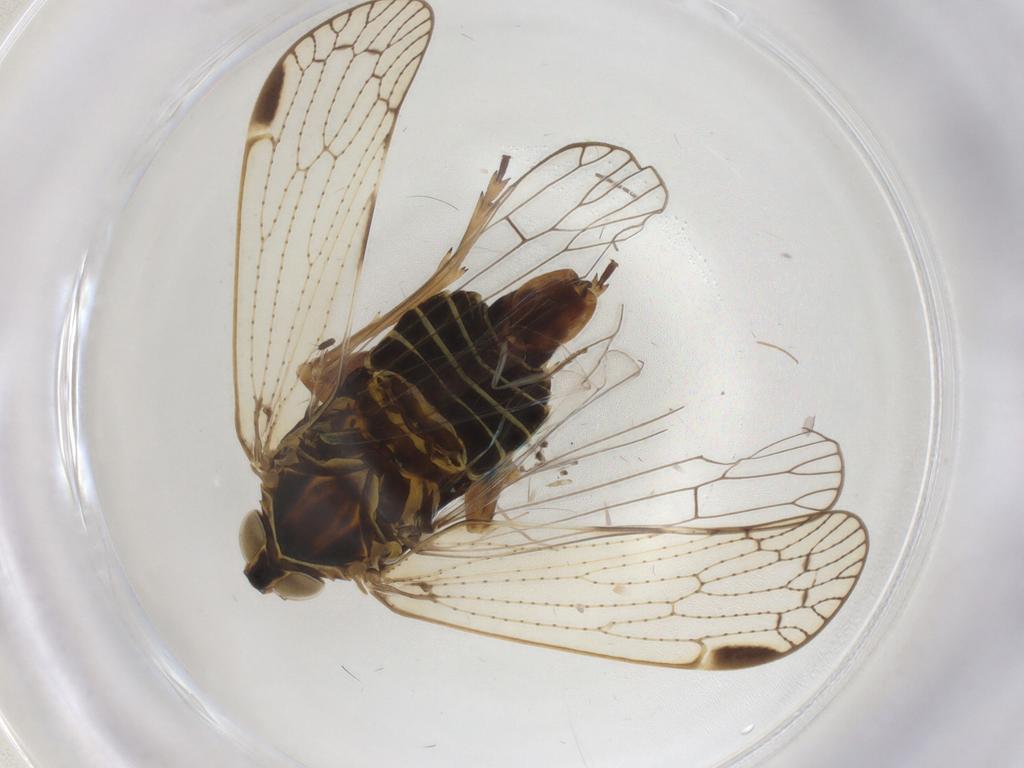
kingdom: Animalia
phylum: Arthropoda
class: Insecta
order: Hemiptera
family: Cixiidae
